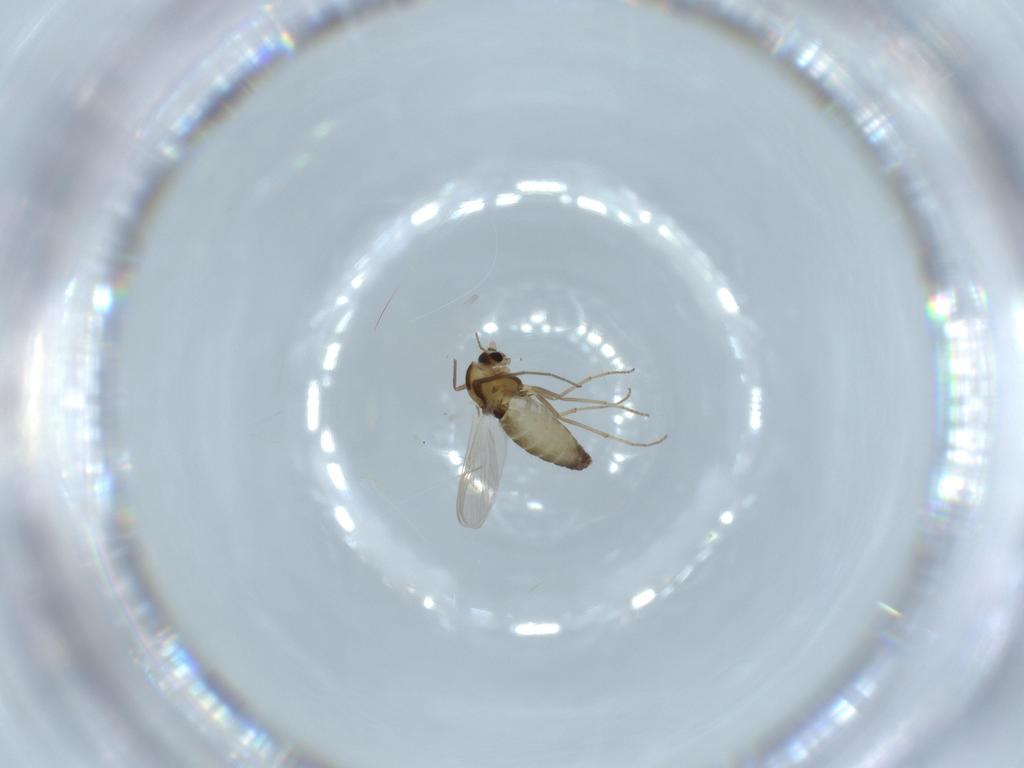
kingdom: Animalia
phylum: Arthropoda
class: Insecta
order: Diptera
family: Chironomidae
